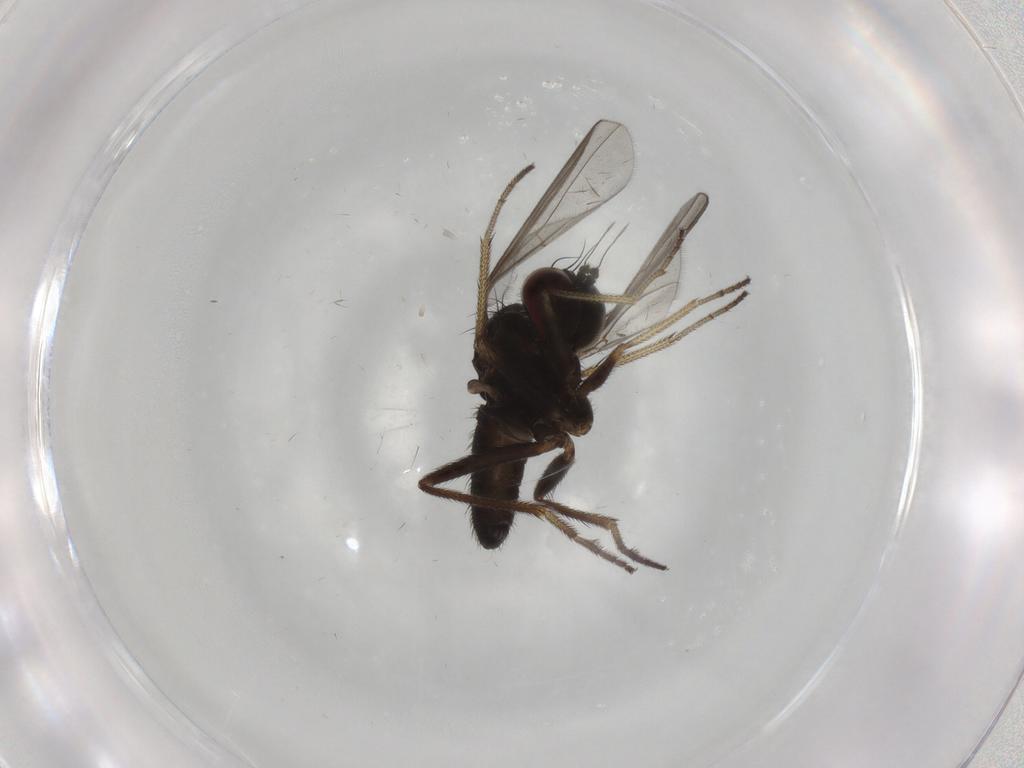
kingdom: Animalia
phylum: Arthropoda
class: Insecta
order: Diptera
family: Dolichopodidae
